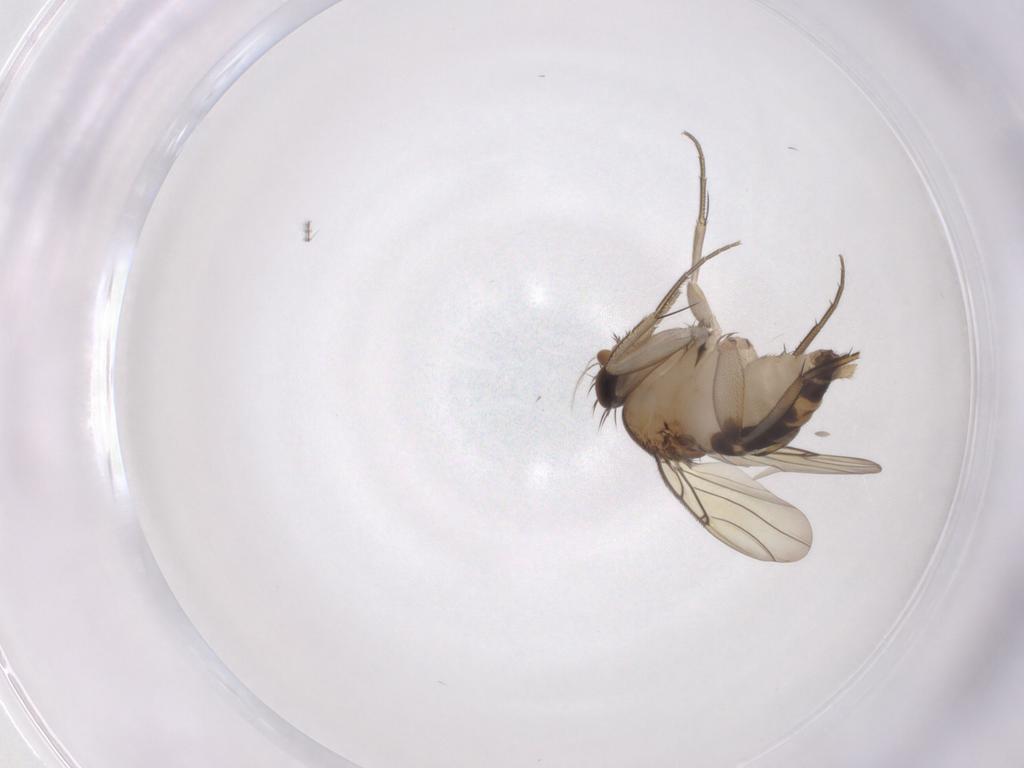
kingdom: Animalia
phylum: Arthropoda
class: Insecta
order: Diptera
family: Phoridae
